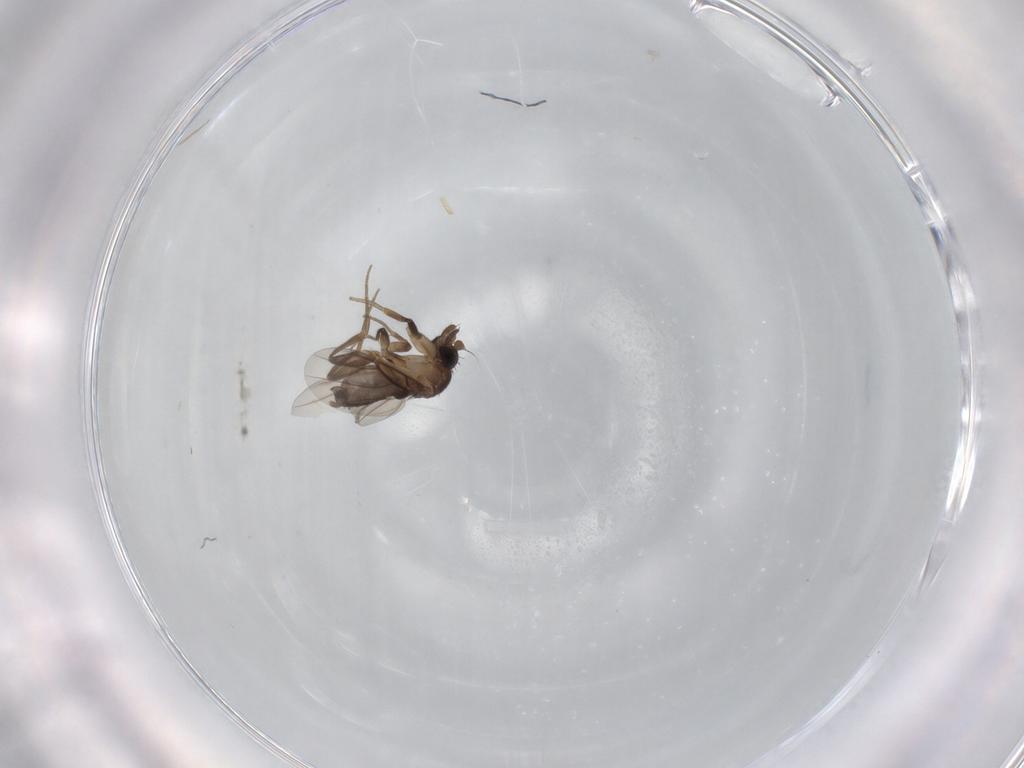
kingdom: Animalia
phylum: Arthropoda
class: Insecta
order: Diptera
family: Phoridae
